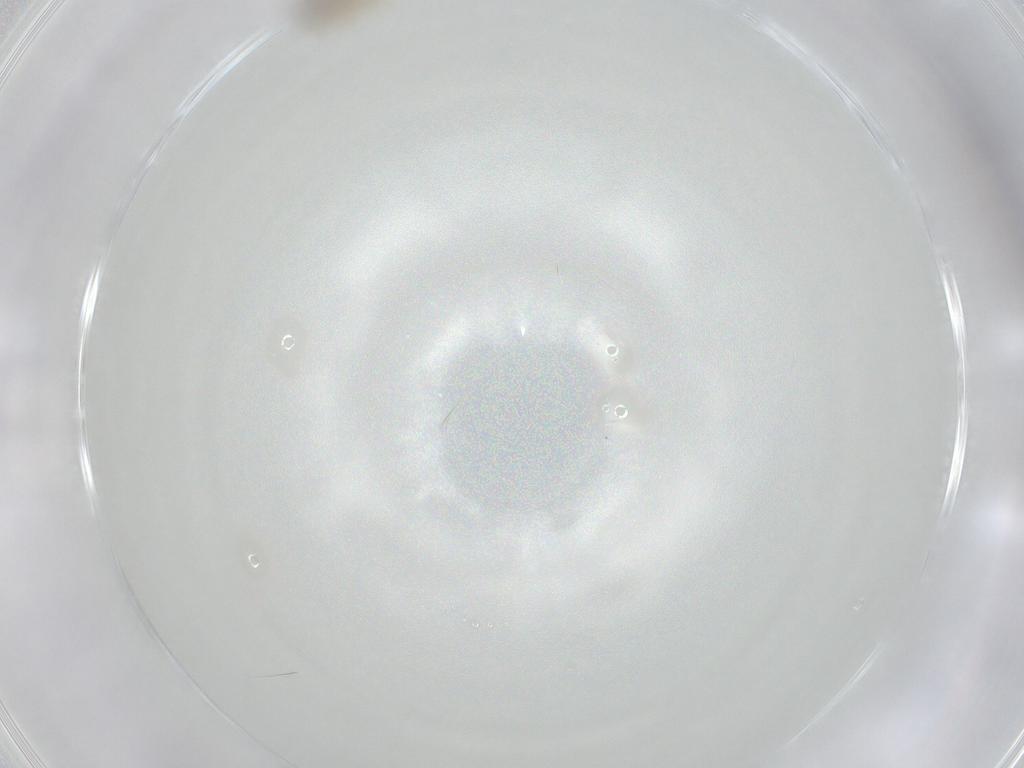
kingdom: Animalia
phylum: Arthropoda
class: Insecta
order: Diptera
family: Cecidomyiidae
